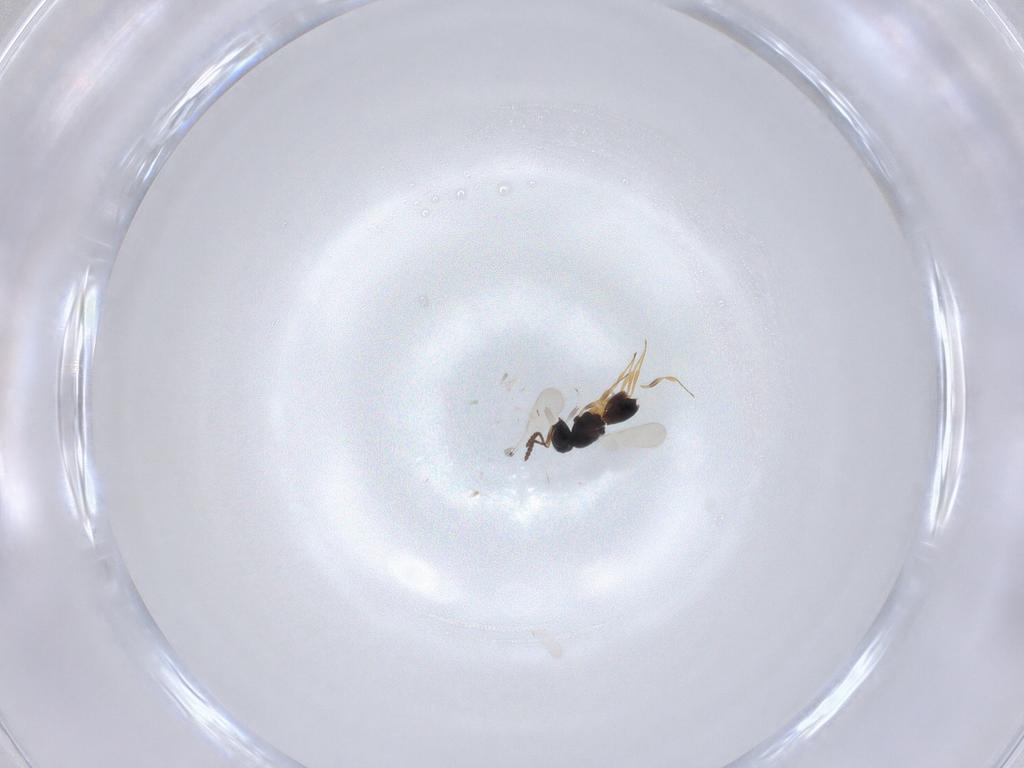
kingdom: Animalia
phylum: Arthropoda
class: Insecta
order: Hymenoptera
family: Scelionidae
